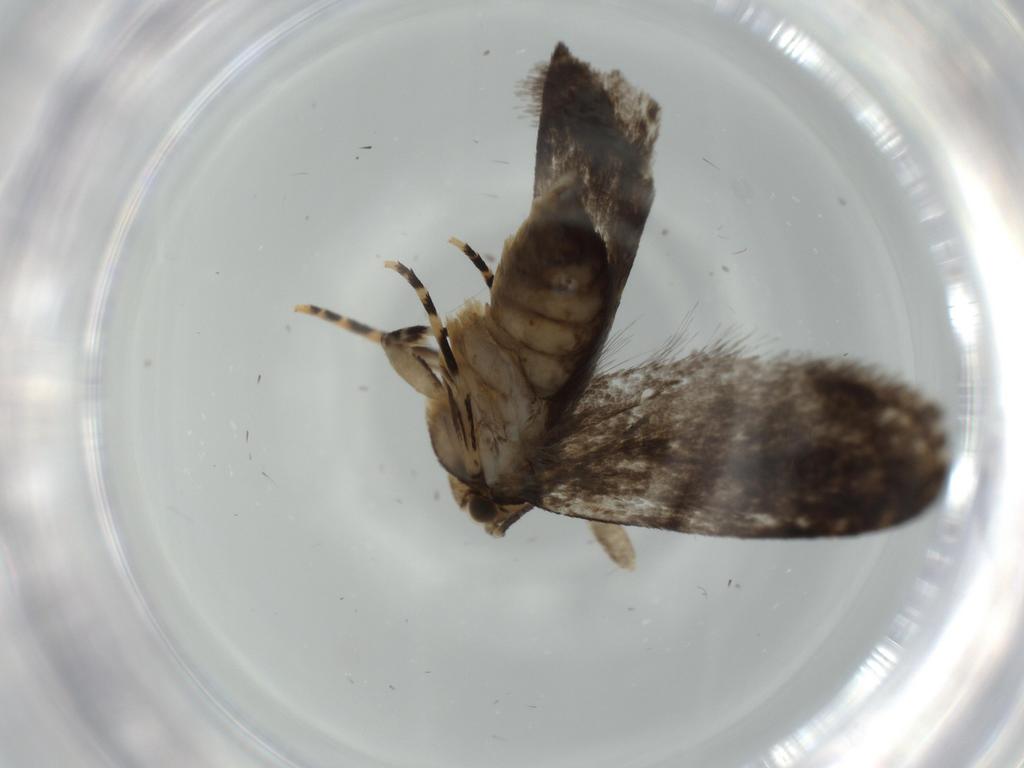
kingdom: Animalia
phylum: Arthropoda
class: Insecta
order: Lepidoptera
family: Tineidae
